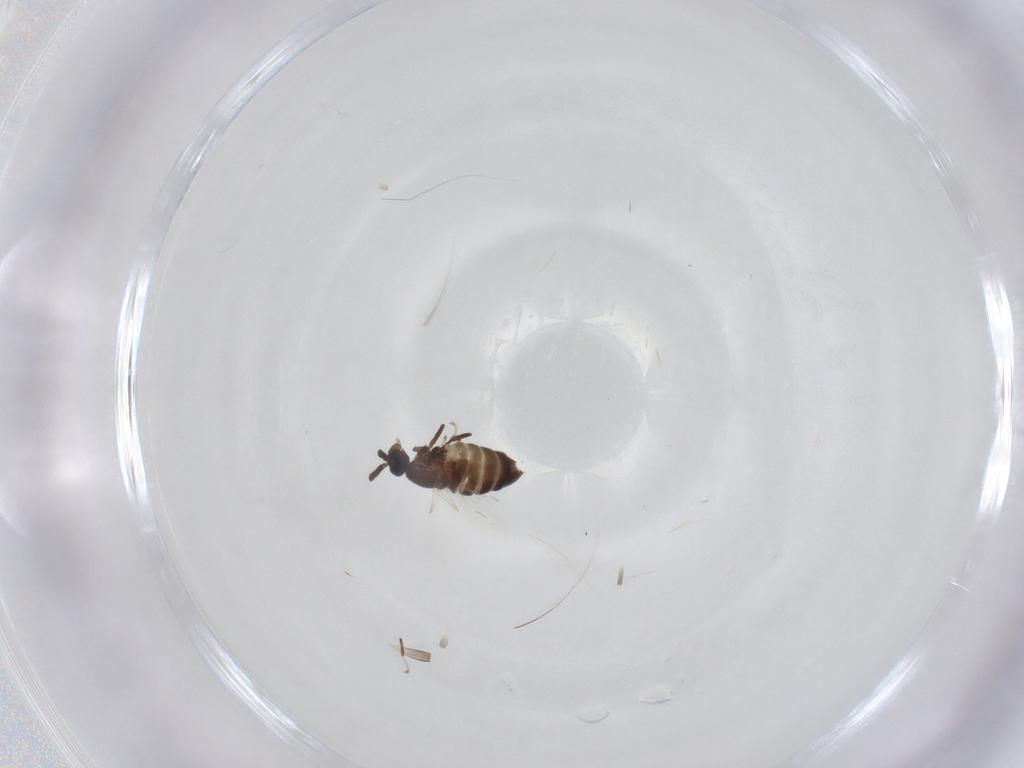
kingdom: Animalia
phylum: Arthropoda
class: Insecta
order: Diptera
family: Scatopsidae
